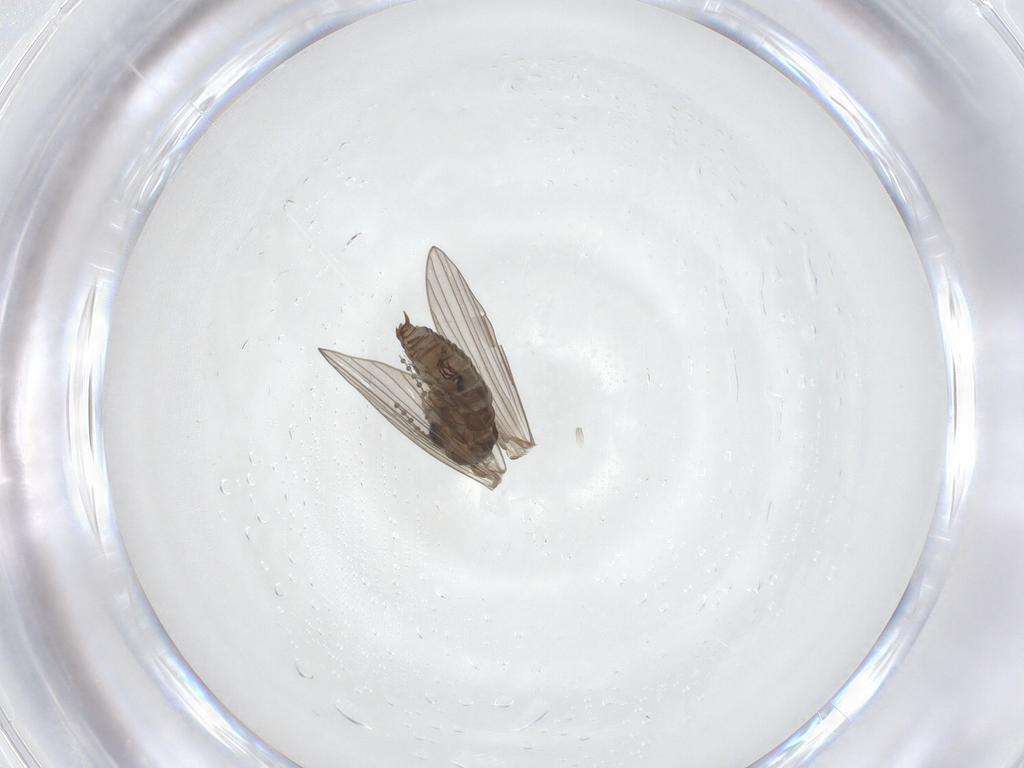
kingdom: Animalia
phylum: Arthropoda
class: Insecta
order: Diptera
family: Psychodidae
